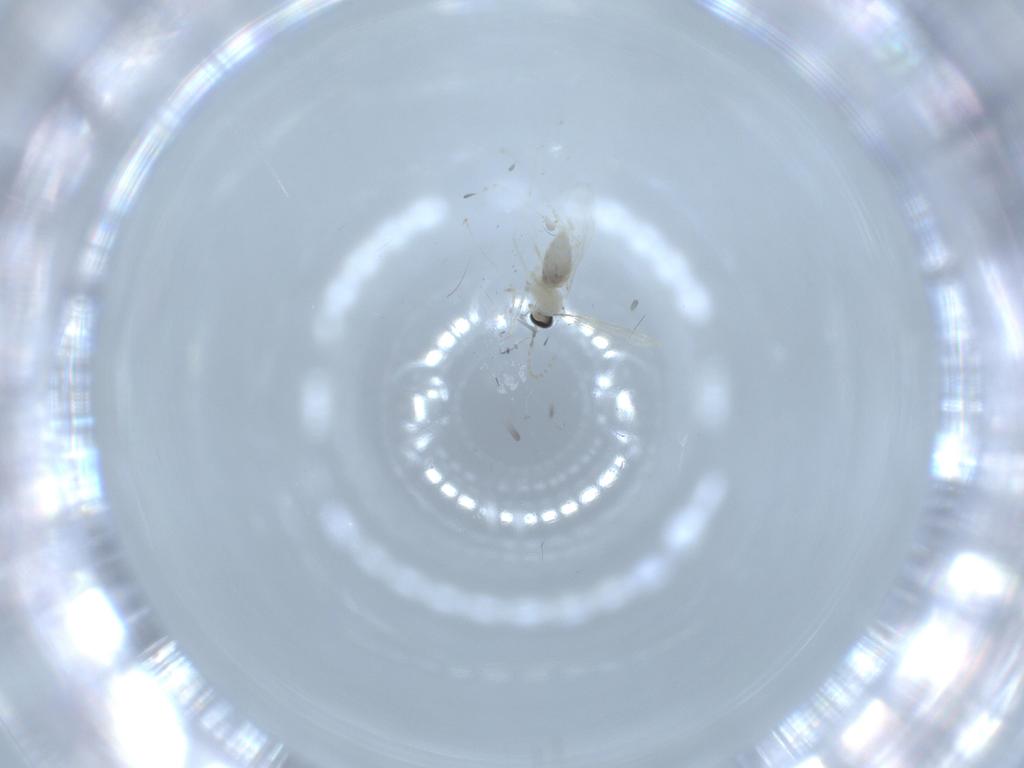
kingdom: Animalia
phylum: Arthropoda
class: Insecta
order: Diptera
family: Cecidomyiidae
